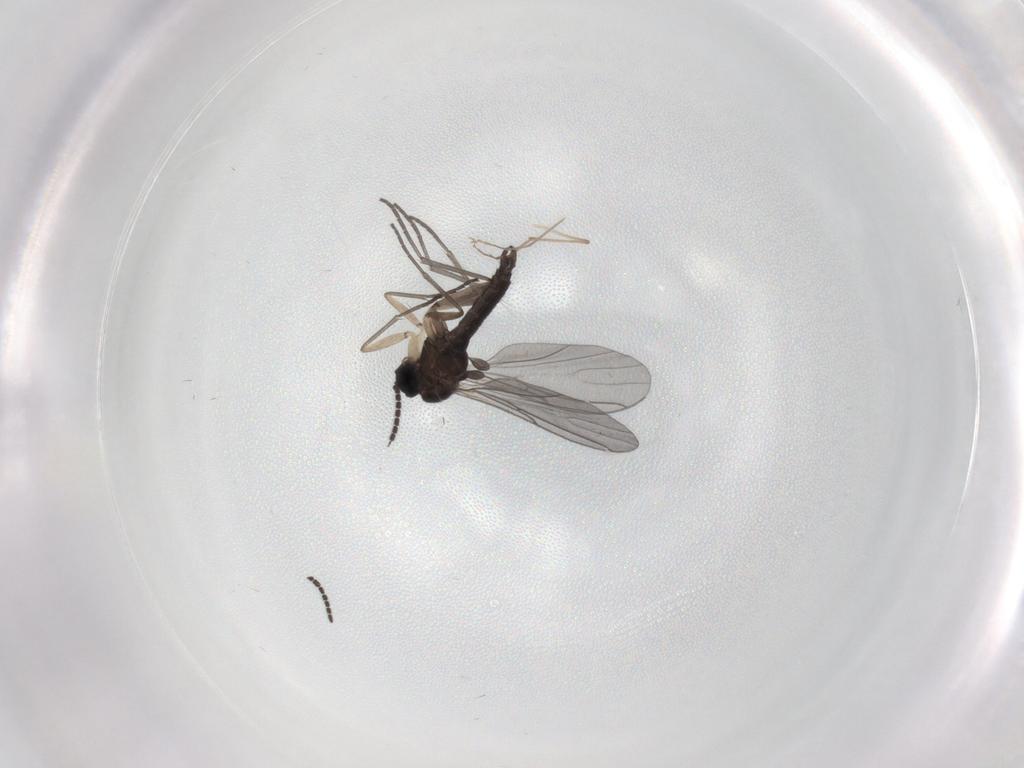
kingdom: Animalia
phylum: Arthropoda
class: Insecta
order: Diptera
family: Sciaridae
